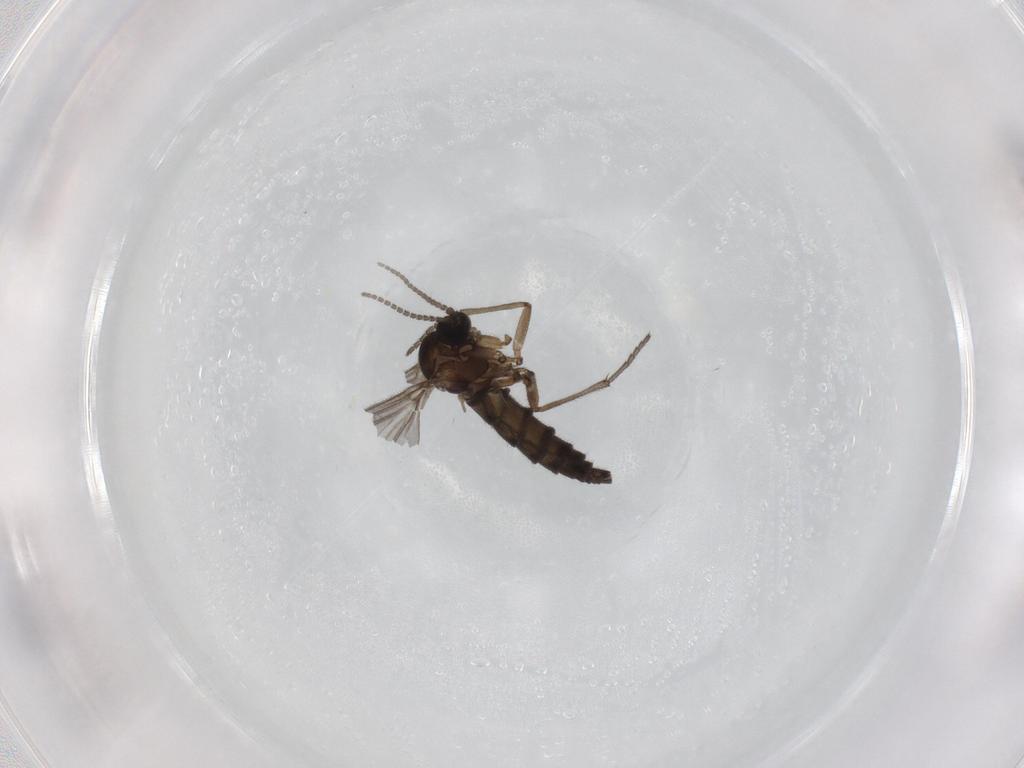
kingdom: Animalia
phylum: Arthropoda
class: Insecta
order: Diptera
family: Sciaridae
